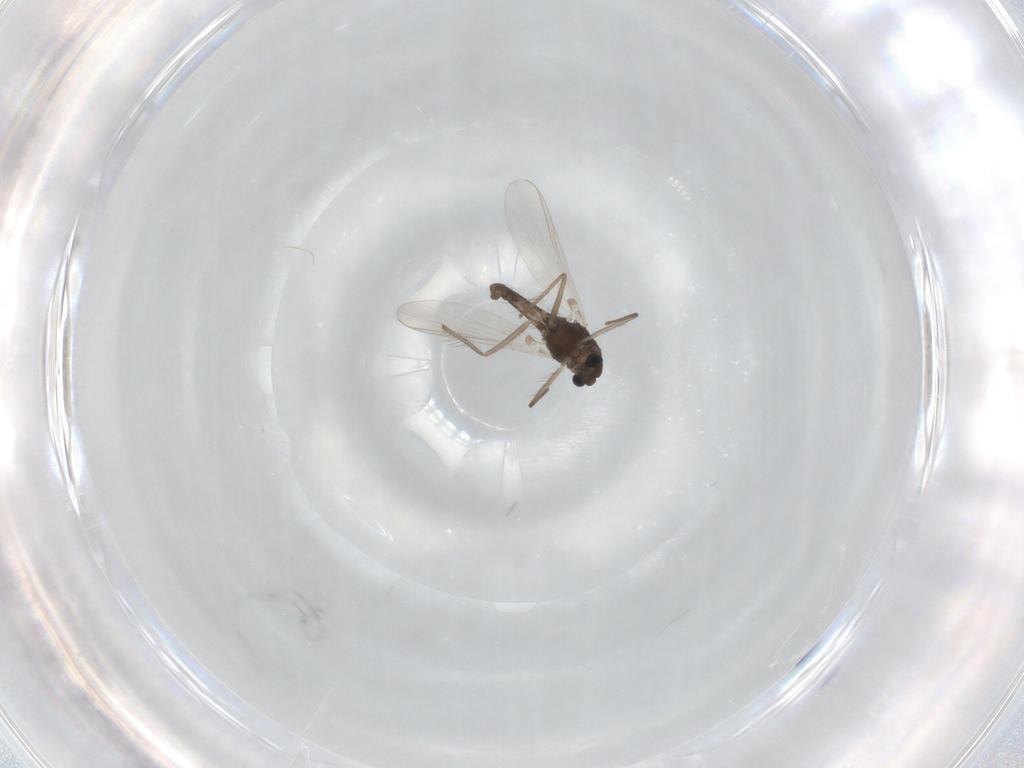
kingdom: Animalia
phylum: Arthropoda
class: Insecta
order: Diptera
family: Chironomidae
